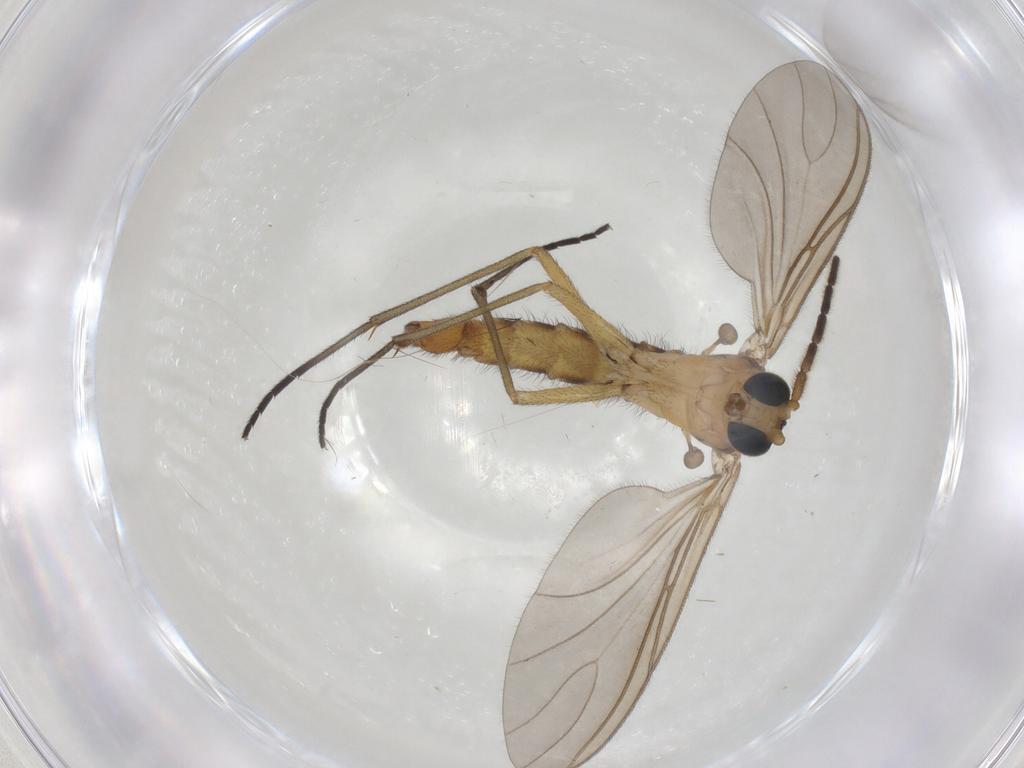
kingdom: Animalia
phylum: Arthropoda
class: Insecta
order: Diptera
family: Sciaridae
